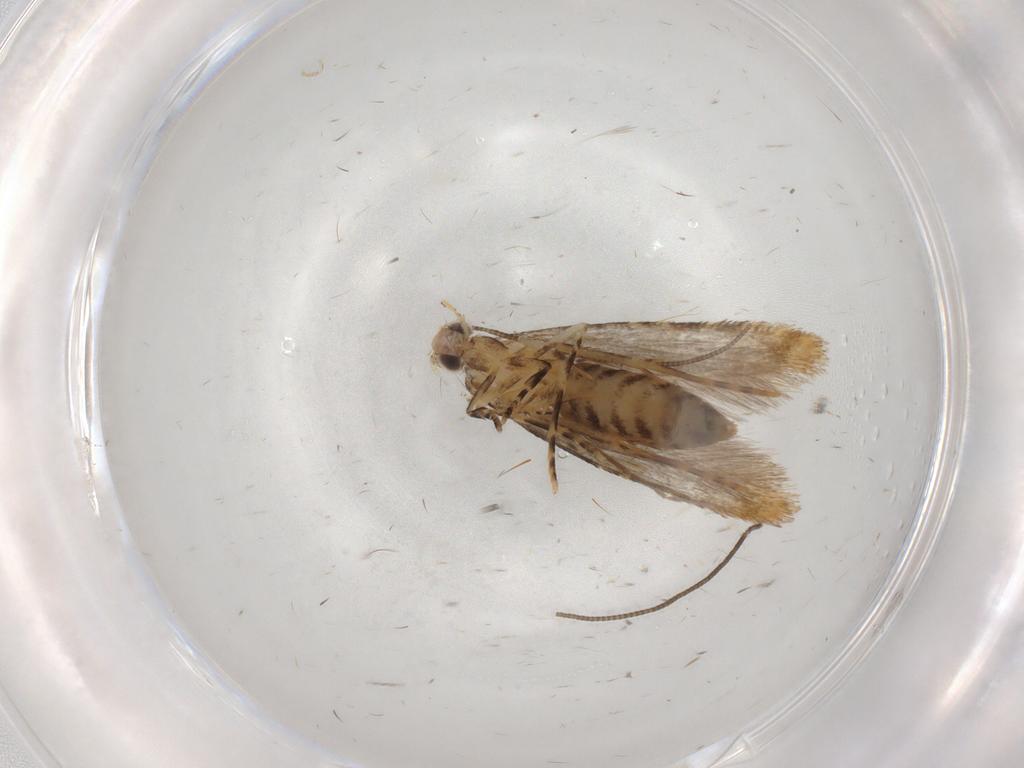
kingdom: Animalia
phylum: Arthropoda
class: Insecta
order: Lepidoptera
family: Tineidae
